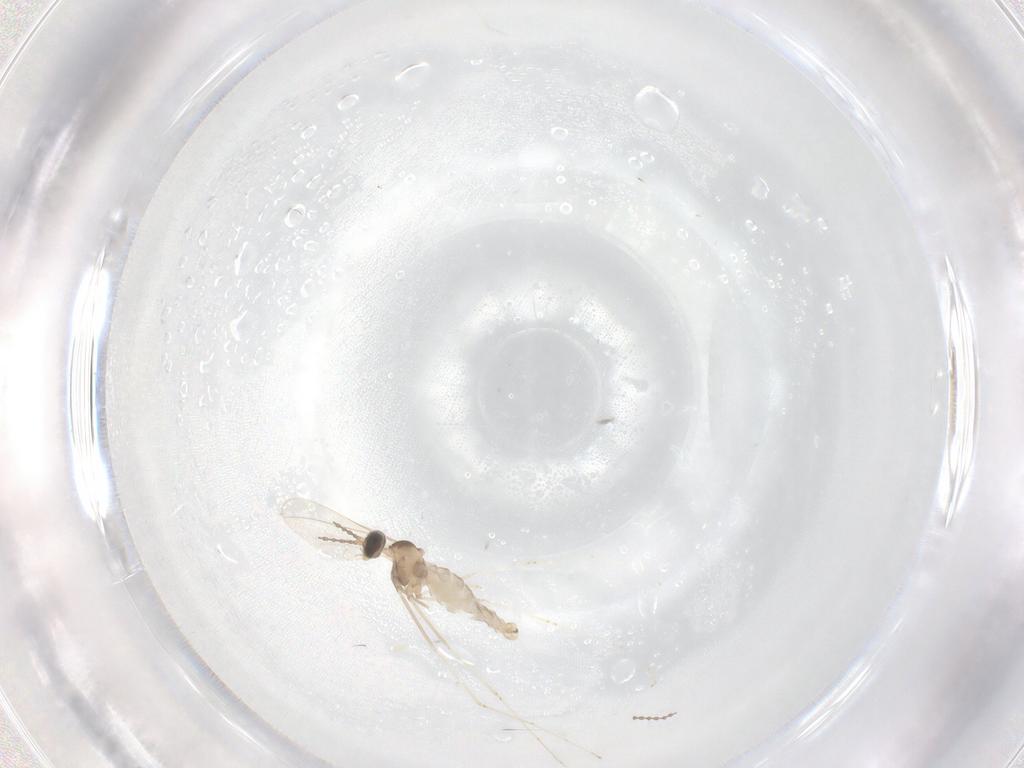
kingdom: Animalia
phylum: Arthropoda
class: Insecta
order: Diptera
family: Cecidomyiidae
